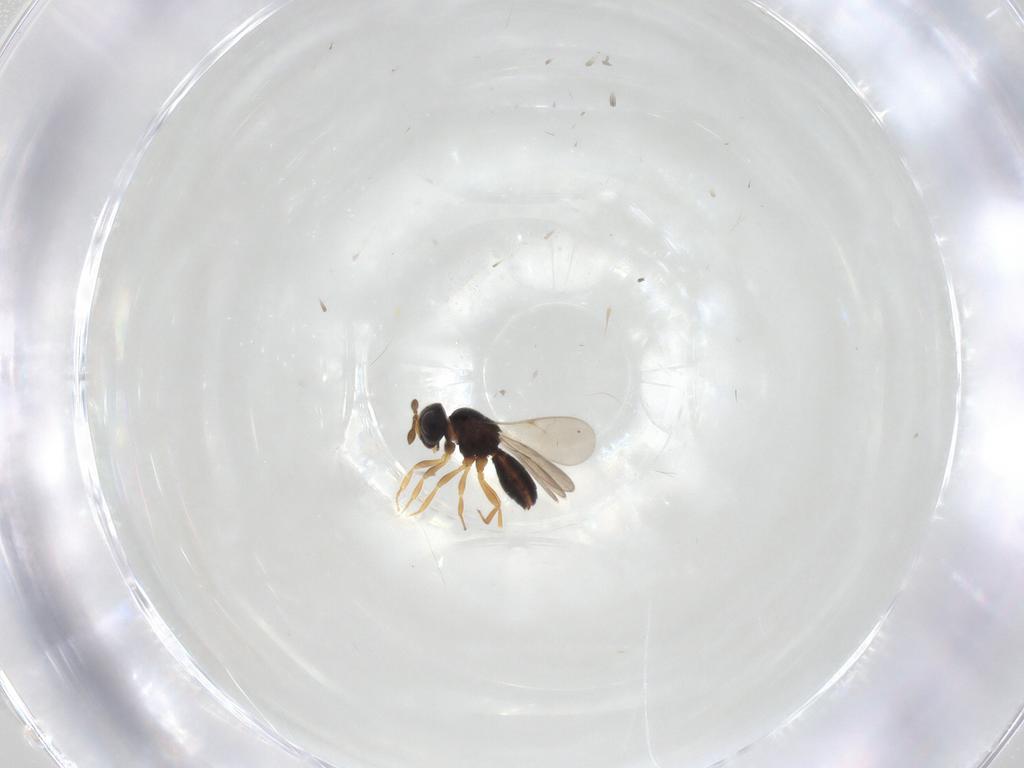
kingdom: Animalia
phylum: Arthropoda
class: Insecta
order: Hymenoptera
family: Scelionidae
